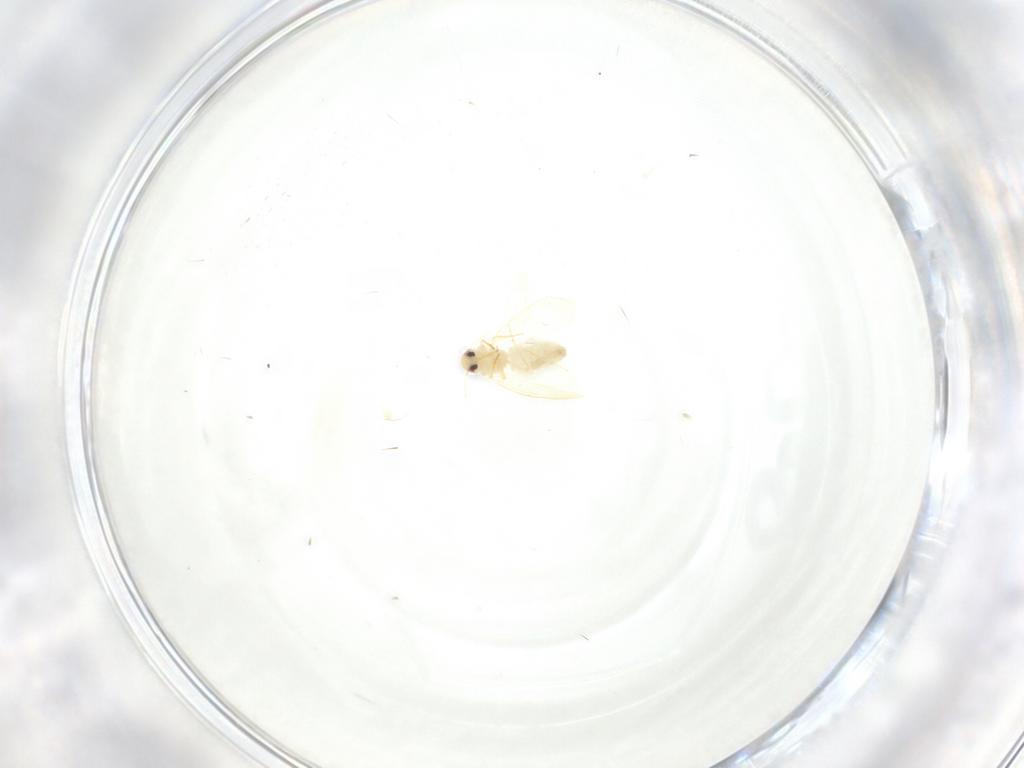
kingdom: Animalia
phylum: Arthropoda
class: Insecta
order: Hemiptera
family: Aleyrodidae
